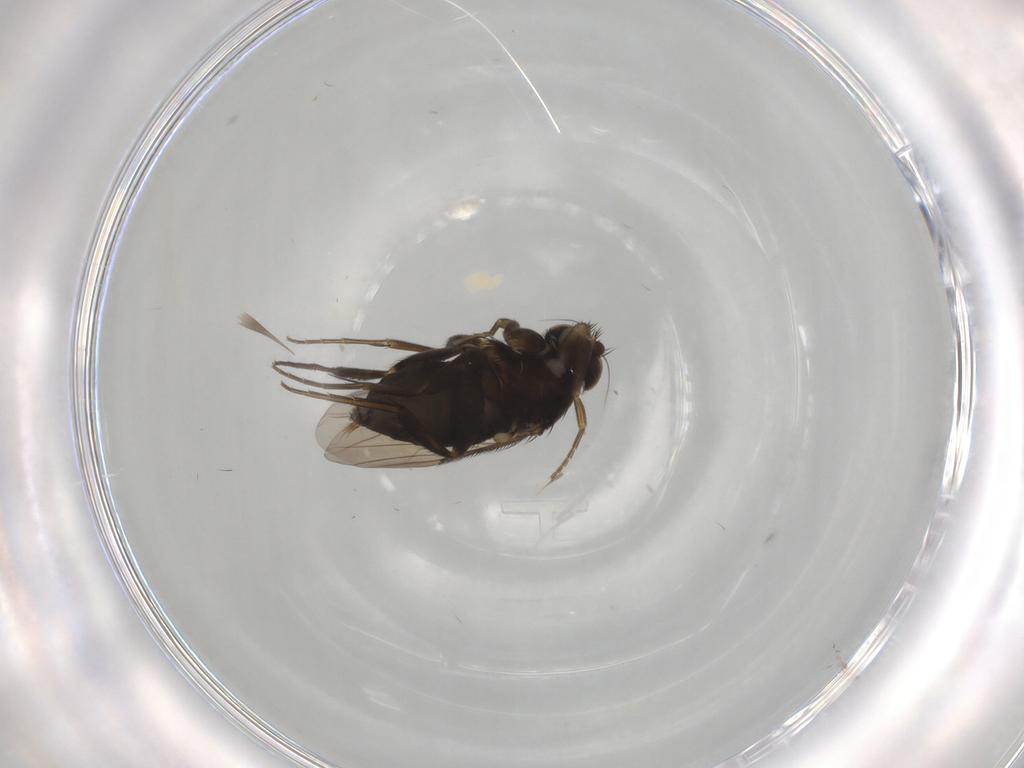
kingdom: Animalia
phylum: Arthropoda
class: Insecta
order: Diptera
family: Phoridae
